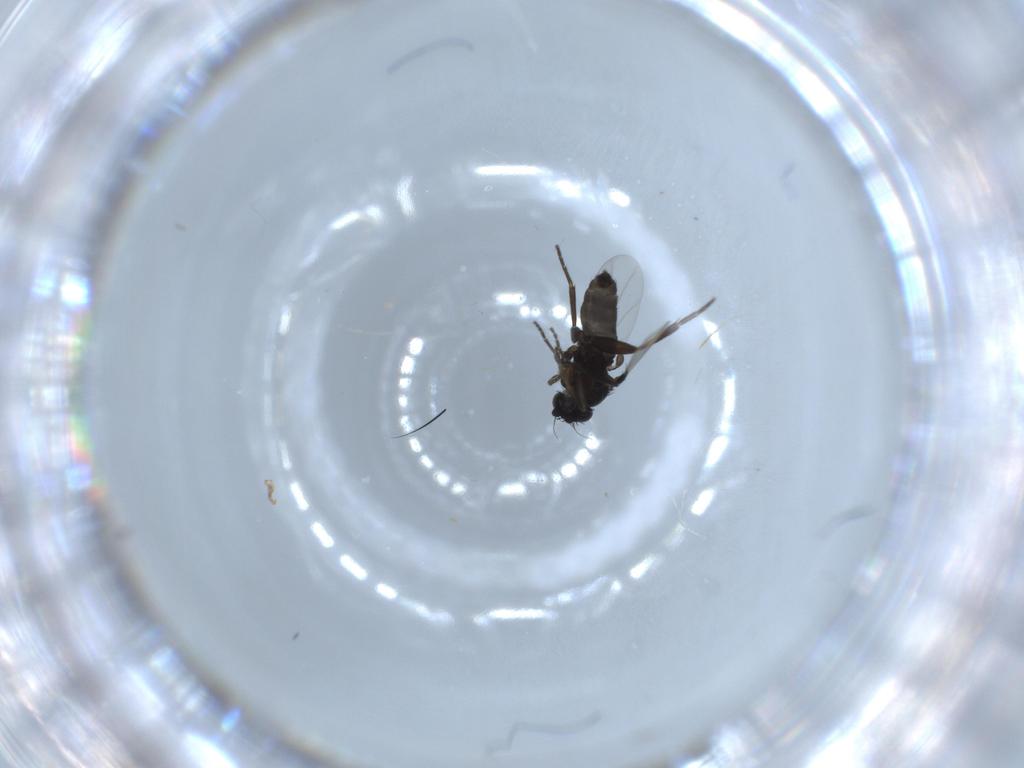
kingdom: Animalia
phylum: Arthropoda
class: Insecta
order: Diptera
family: Phoridae
